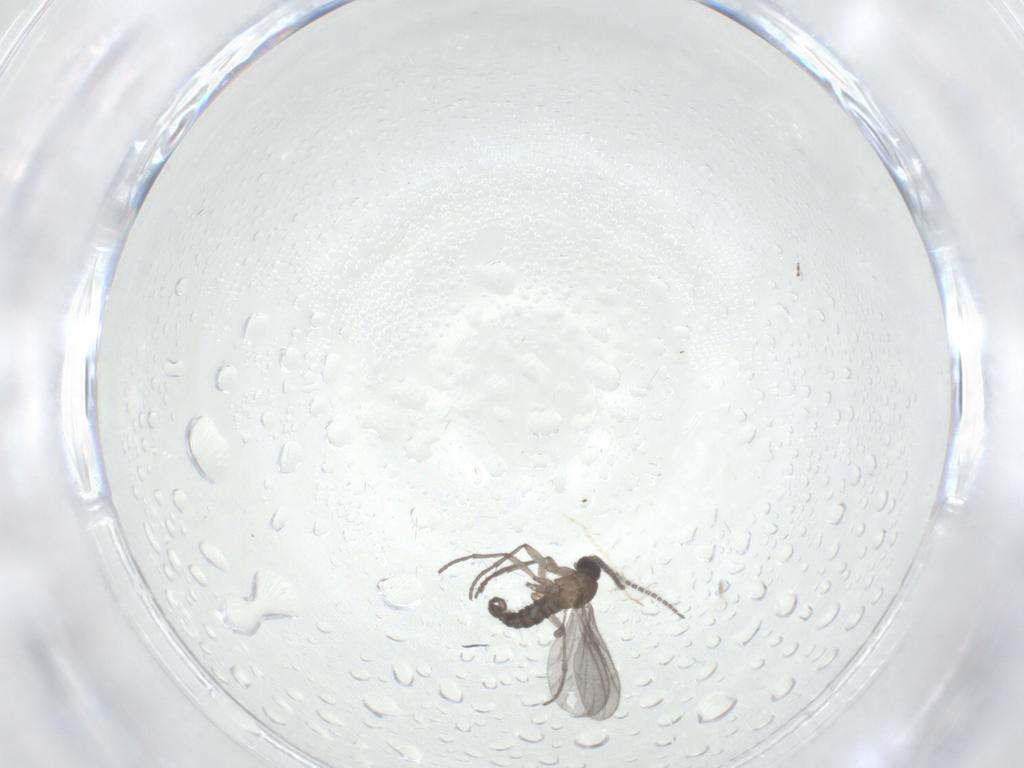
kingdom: Animalia
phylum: Arthropoda
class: Insecta
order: Diptera
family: Sciaridae
